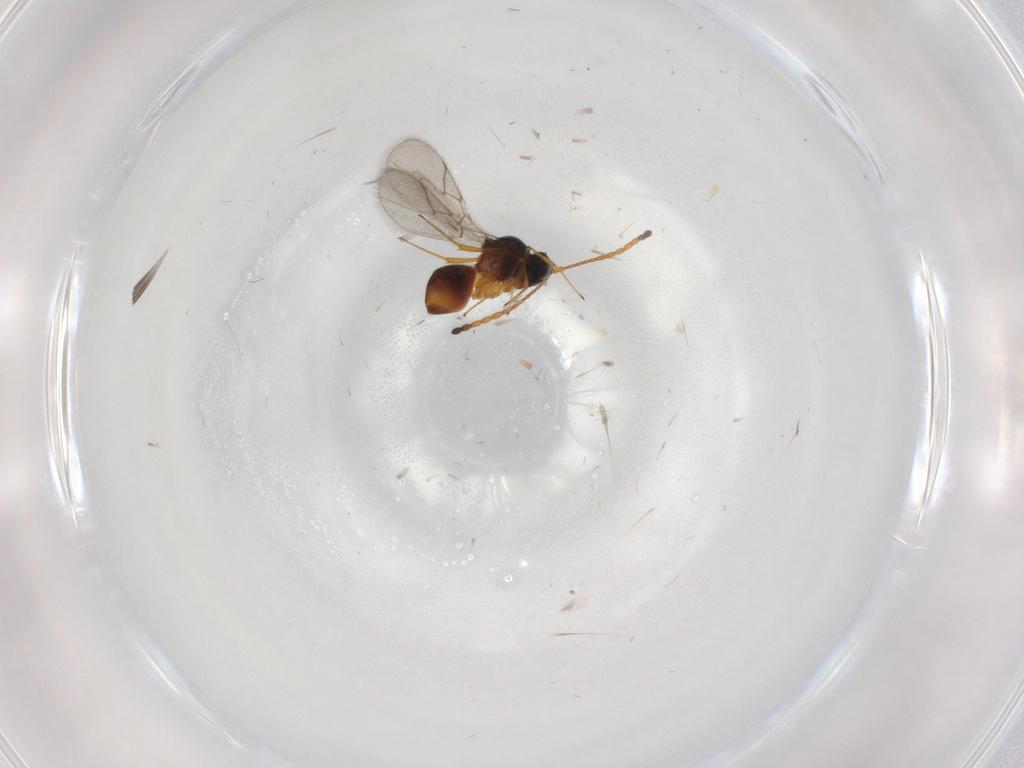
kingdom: Animalia
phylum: Arthropoda
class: Insecta
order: Hymenoptera
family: Figitidae
